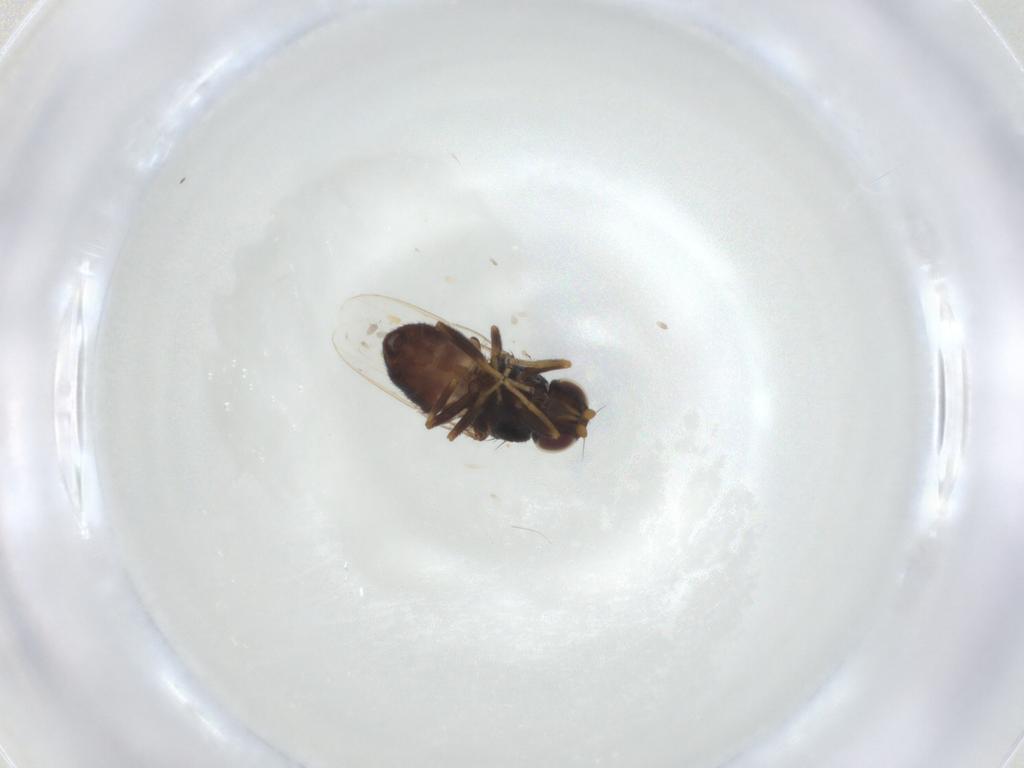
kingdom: Animalia
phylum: Arthropoda
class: Insecta
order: Diptera
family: Chloropidae
